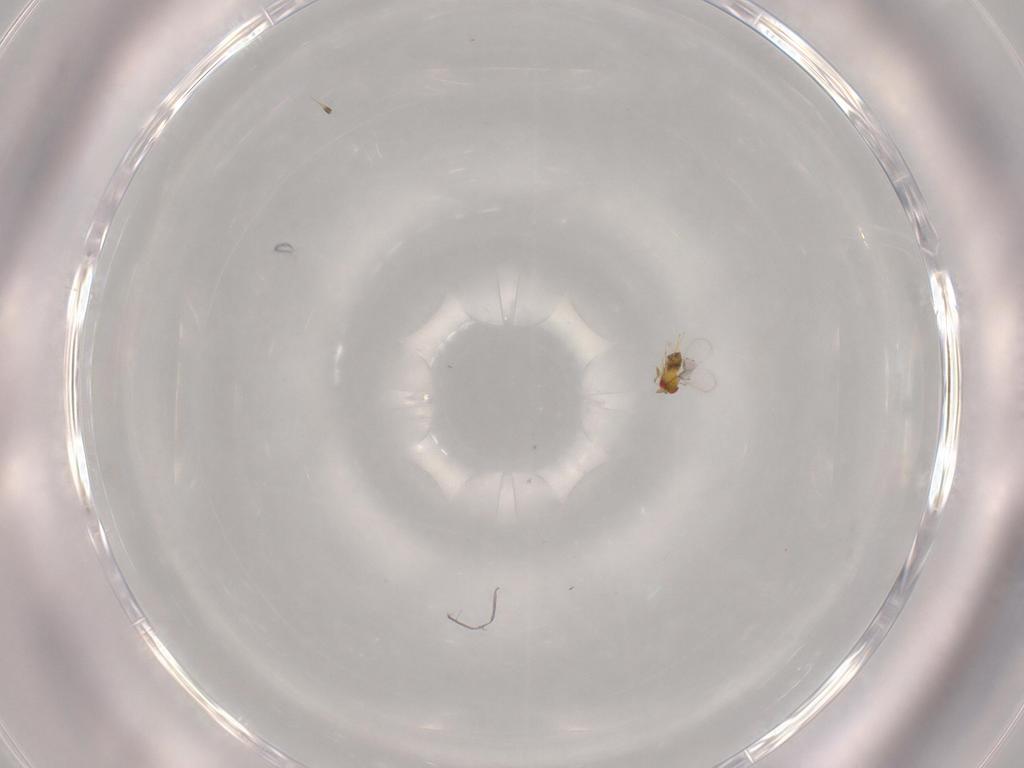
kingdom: Animalia
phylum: Arthropoda
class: Insecta
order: Hymenoptera
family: Trichogrammatidae
